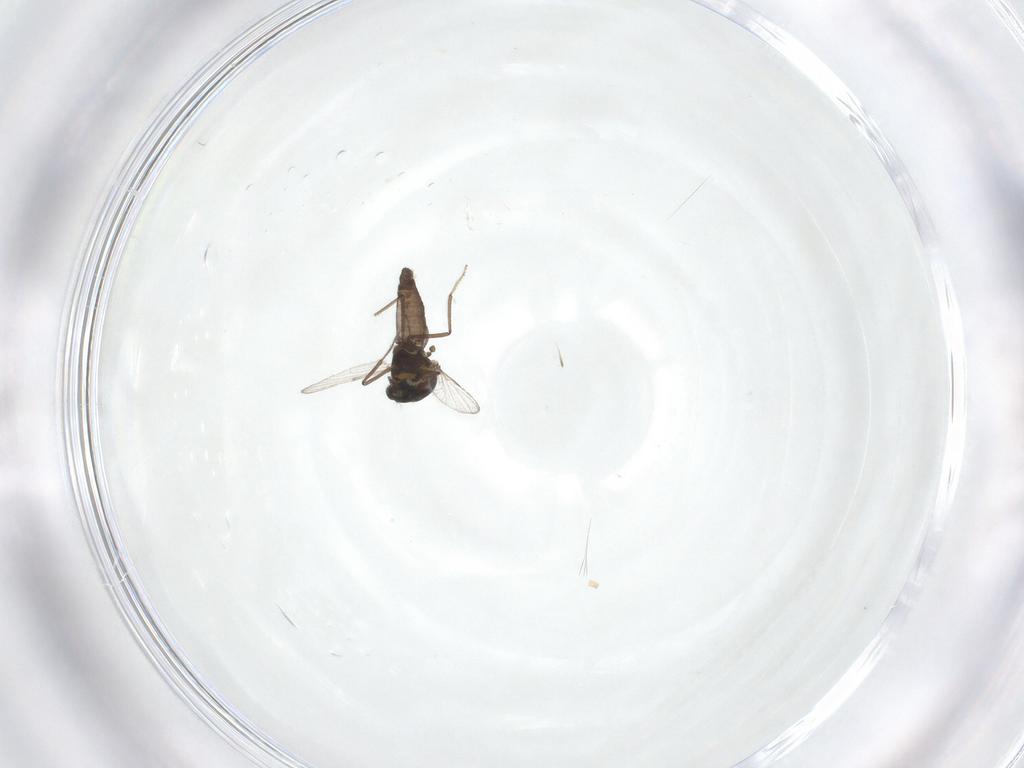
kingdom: Animalia
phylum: Arthropoda
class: Insecta
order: Diptera
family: Ceratopogonidae
